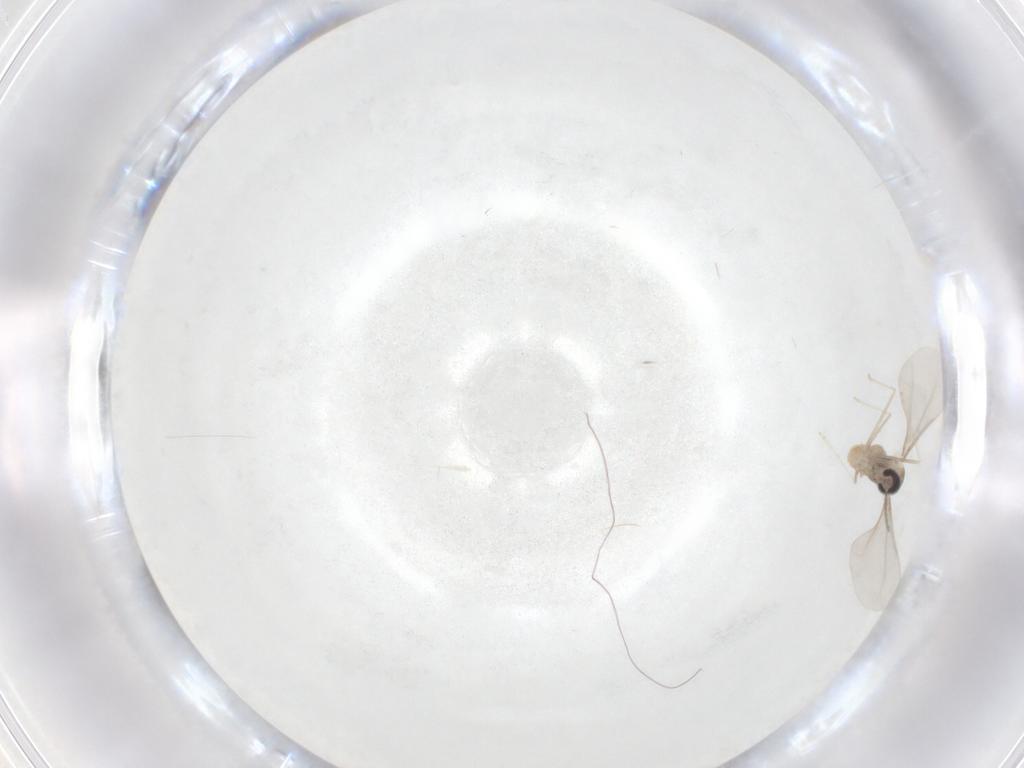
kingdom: Animalia
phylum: Arthropoda
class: Insecta
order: Diptera
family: Cecidomyiidae
